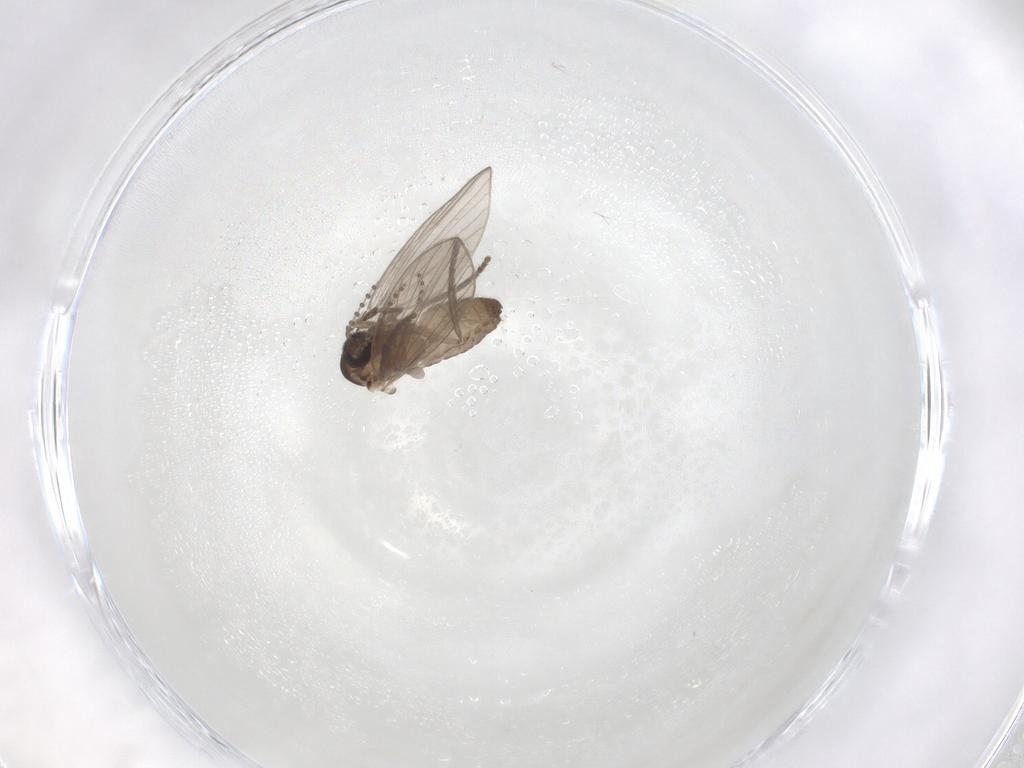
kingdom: Animalia
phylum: Arthropoda
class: Insecta
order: Diptera
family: Psychodidae
